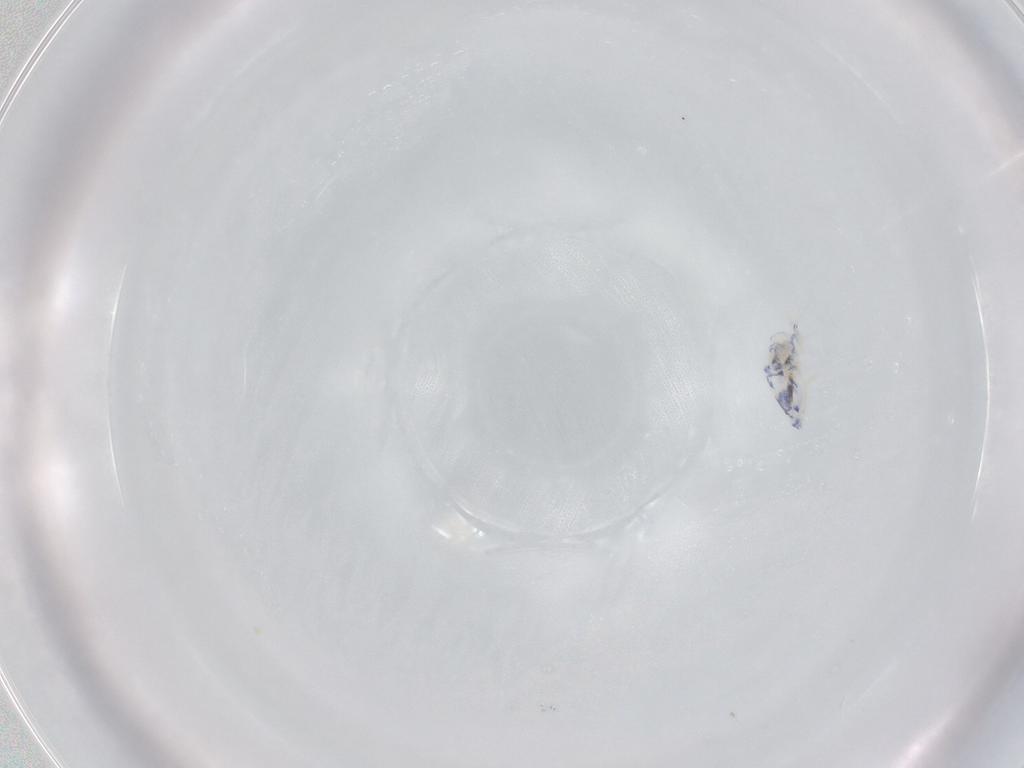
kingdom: Animalia
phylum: Arthropoda
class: Collembola
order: Entomobryomorpha
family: Entomobryidae
